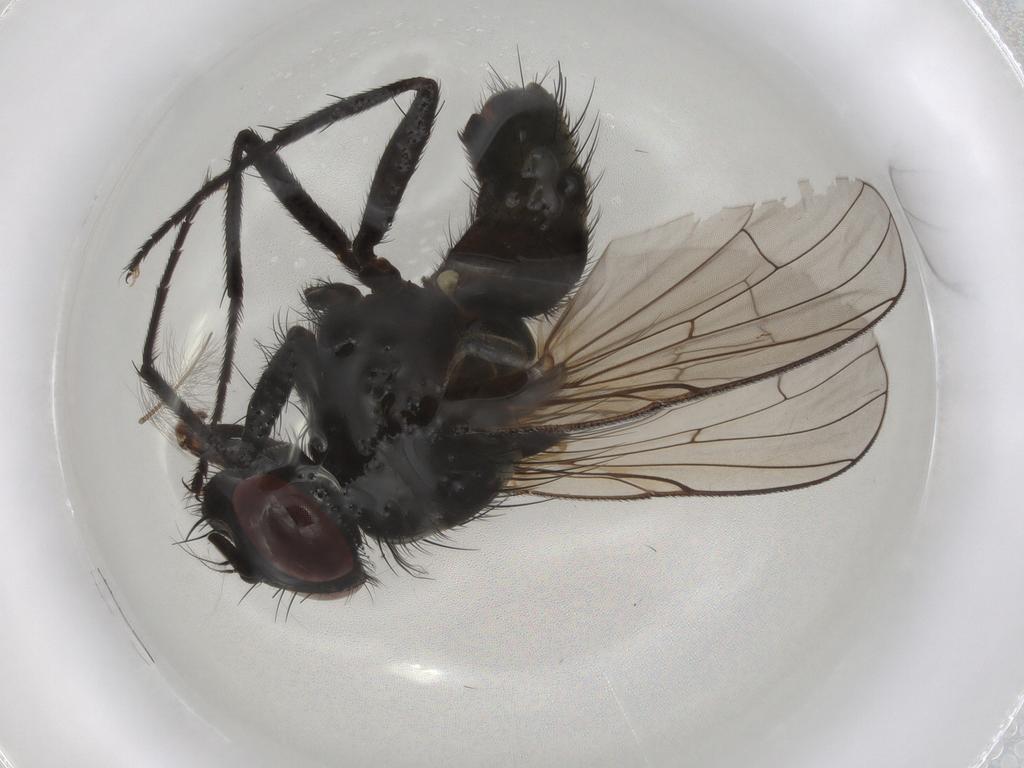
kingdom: Animalia
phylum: Arthropoda
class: Insecta
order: Diptera
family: Muscidae
